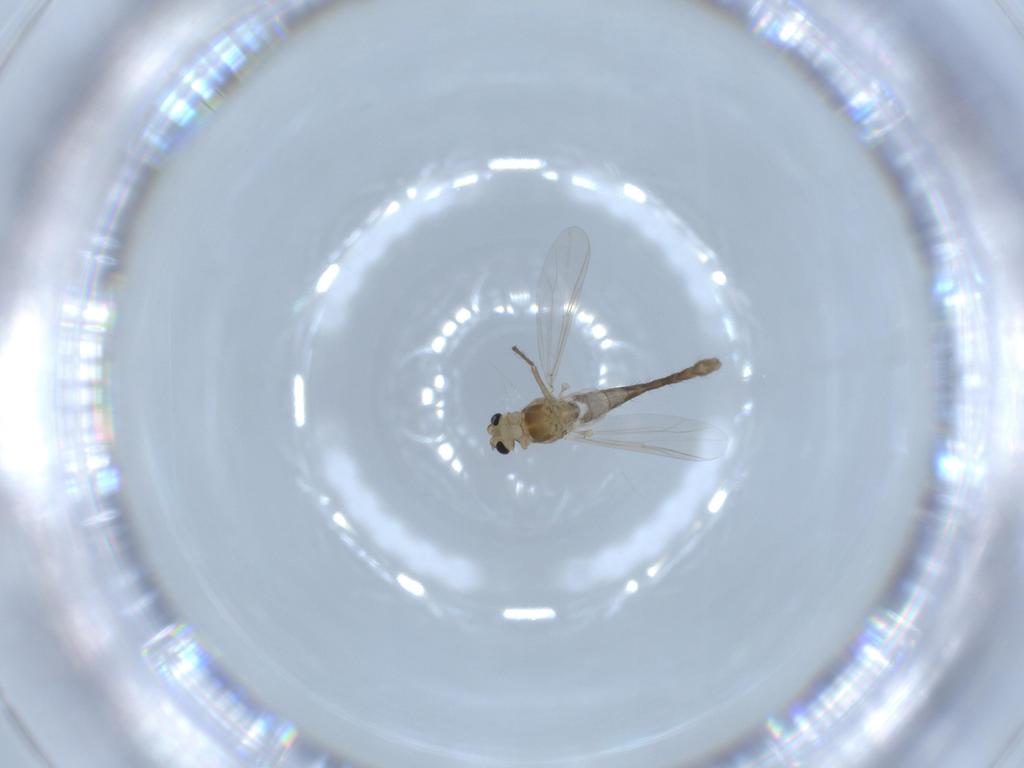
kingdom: Animalia
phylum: Arthropoda
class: Insecta
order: Diptera
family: Chironomidae
